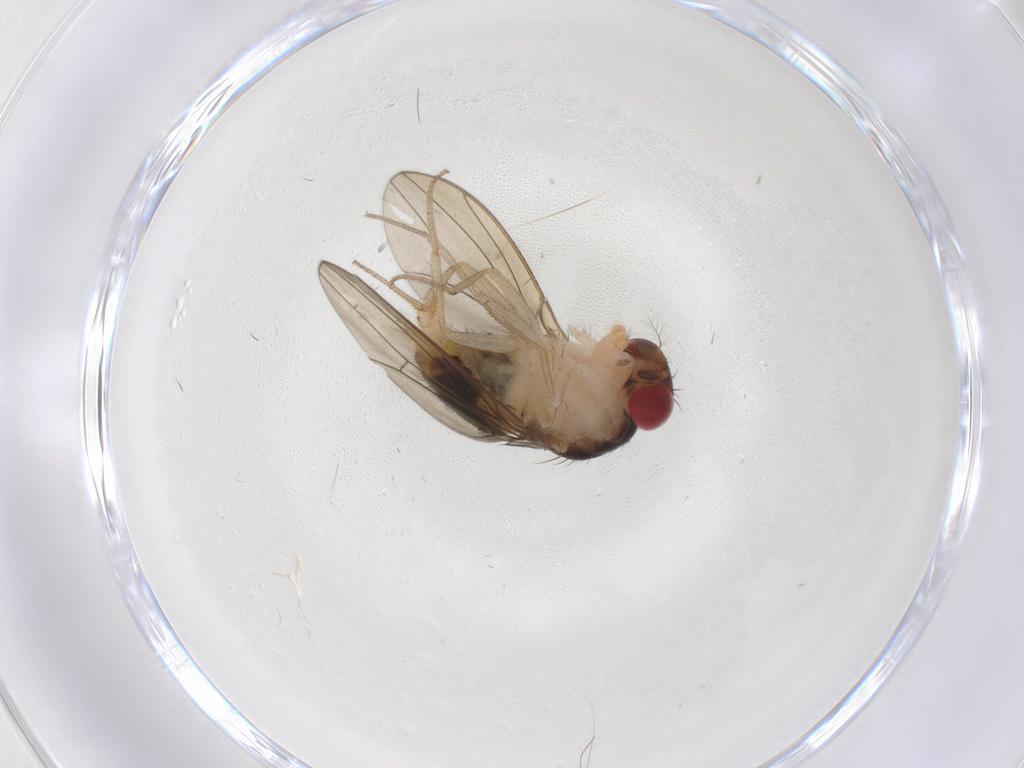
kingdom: Animalia
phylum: Arthropoda
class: Insecta
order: Diptera
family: Drosophilidae
